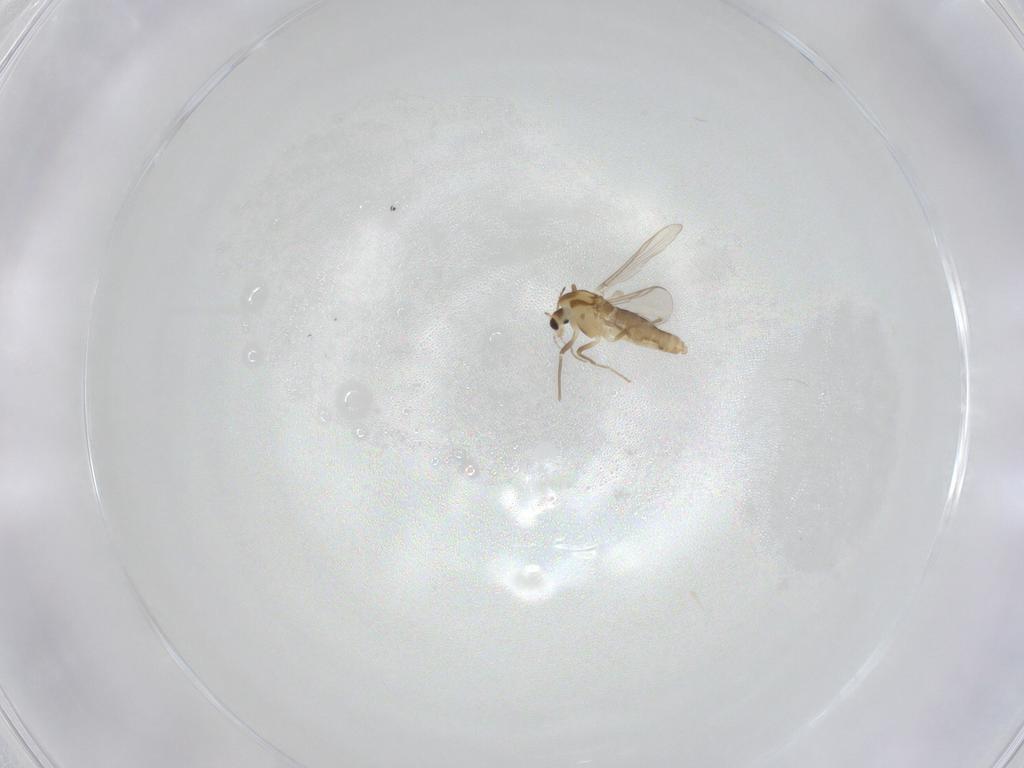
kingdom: Animalia
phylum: Arthropoda
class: Insecta
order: Diptera
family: Chironomidae
